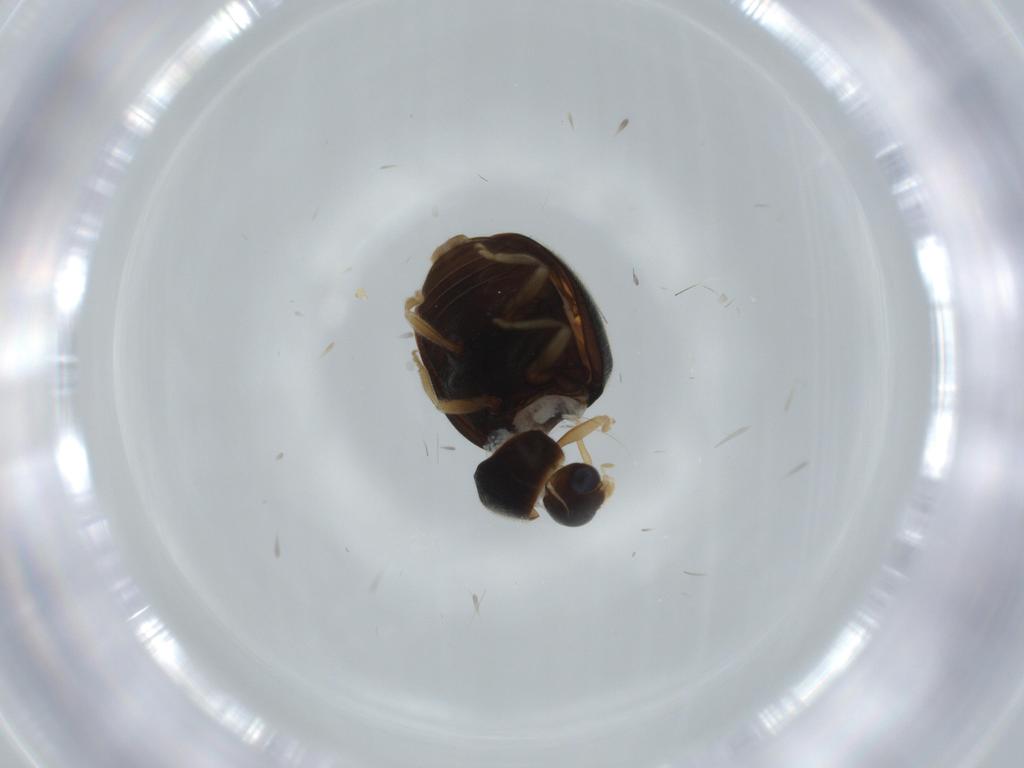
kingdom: Animalia
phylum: Arthropoda
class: Insecta
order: Coleoptera
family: Coccinellidae
